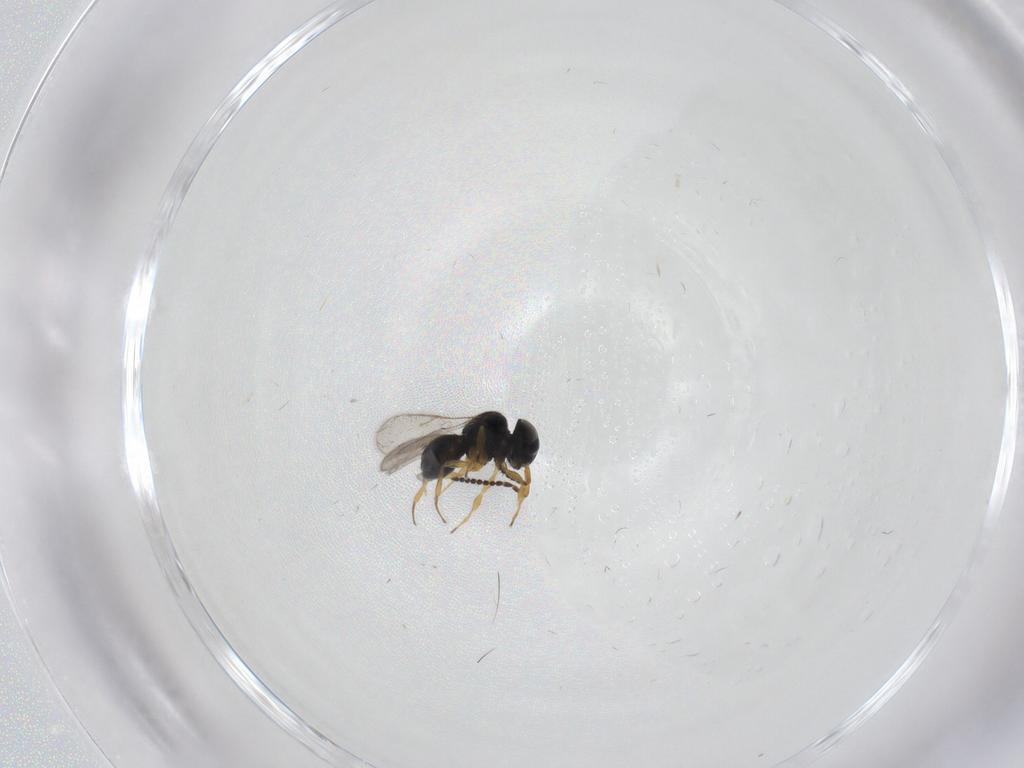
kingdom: Animalia
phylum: Arthropoda
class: Insecta
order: Hymenoptera
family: Scelionidae
